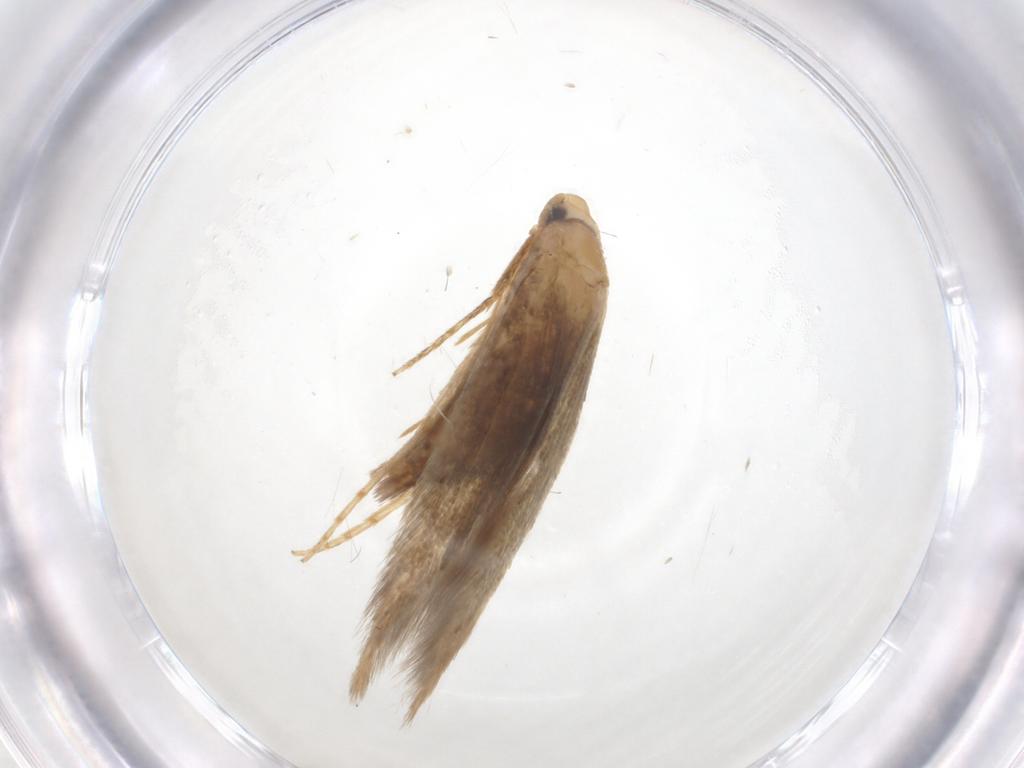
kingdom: Animalia
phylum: Arthropoda
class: Insecta
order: Lepidoptera
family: Tineidae
